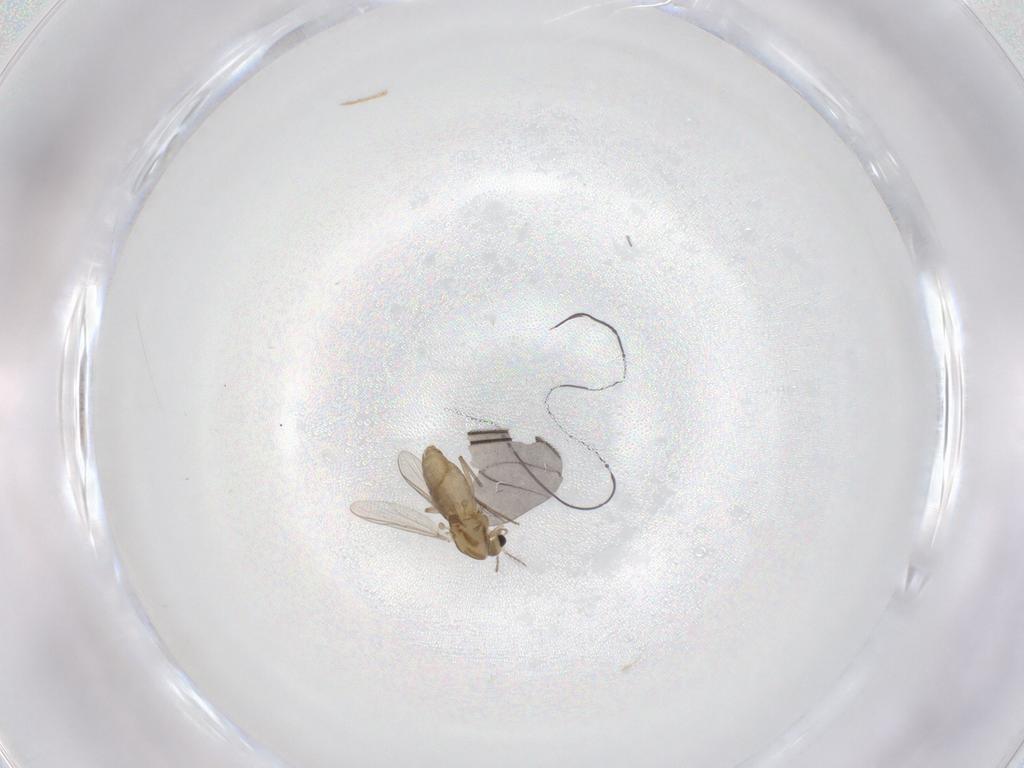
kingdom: Animalia
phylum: Arthropoda
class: Insecta
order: Diptera
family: Chironomidae
